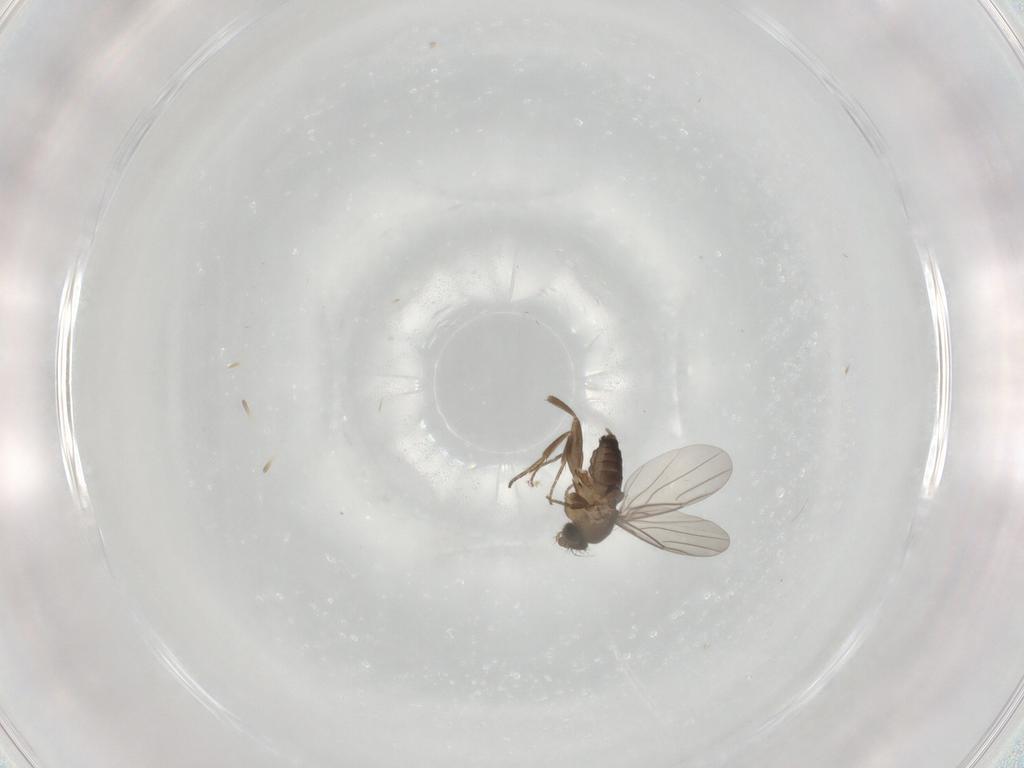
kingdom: Animalia
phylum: Arthropoda
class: Insecta
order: Diptera
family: Phoridae
